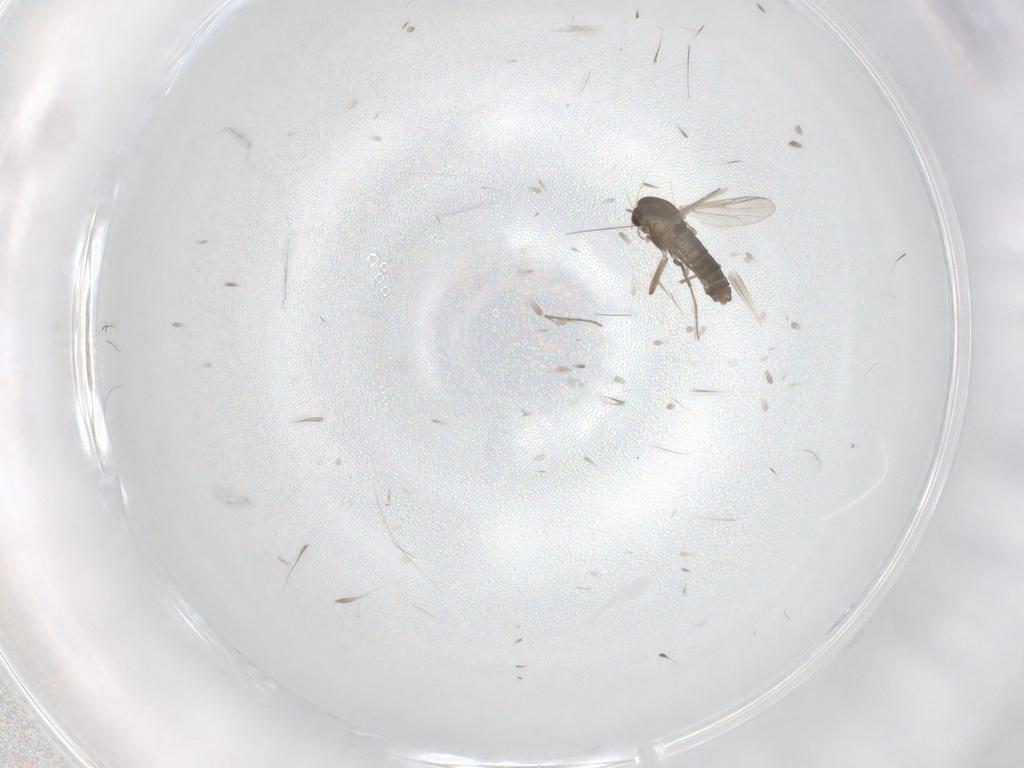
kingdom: Animalia
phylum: Arthropoda
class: Insecta
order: Diptera
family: Chironomidae
